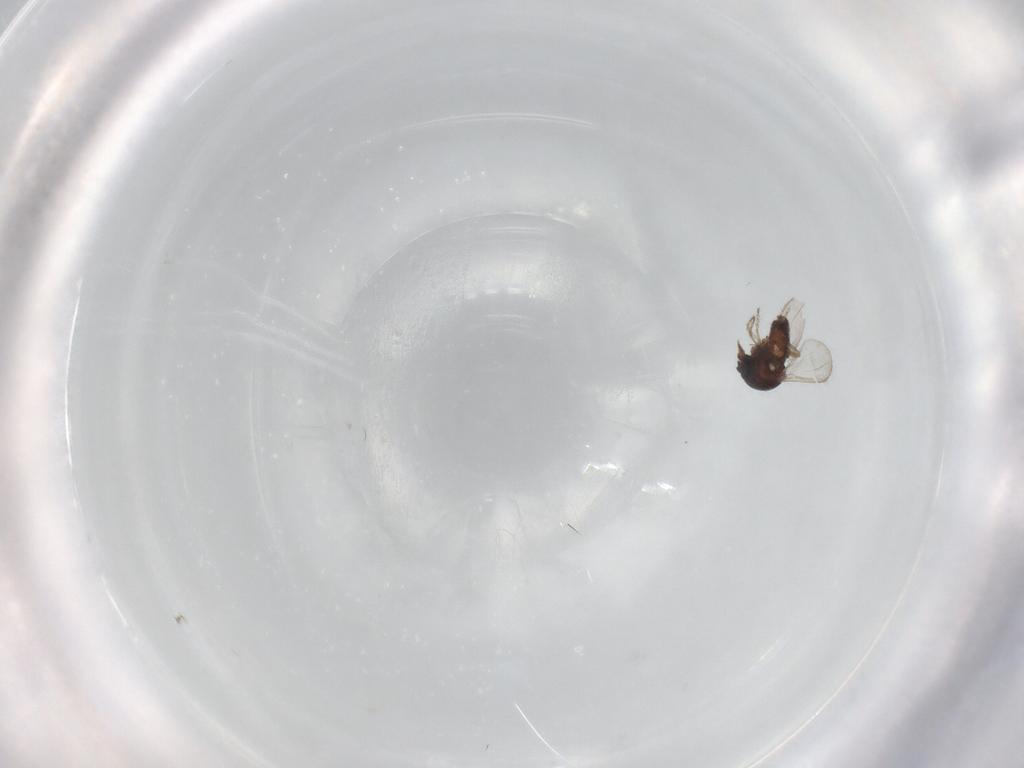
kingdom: Animalia
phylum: Arthropoda
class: Insecta
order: Diptera
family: Ceratopogonidae
